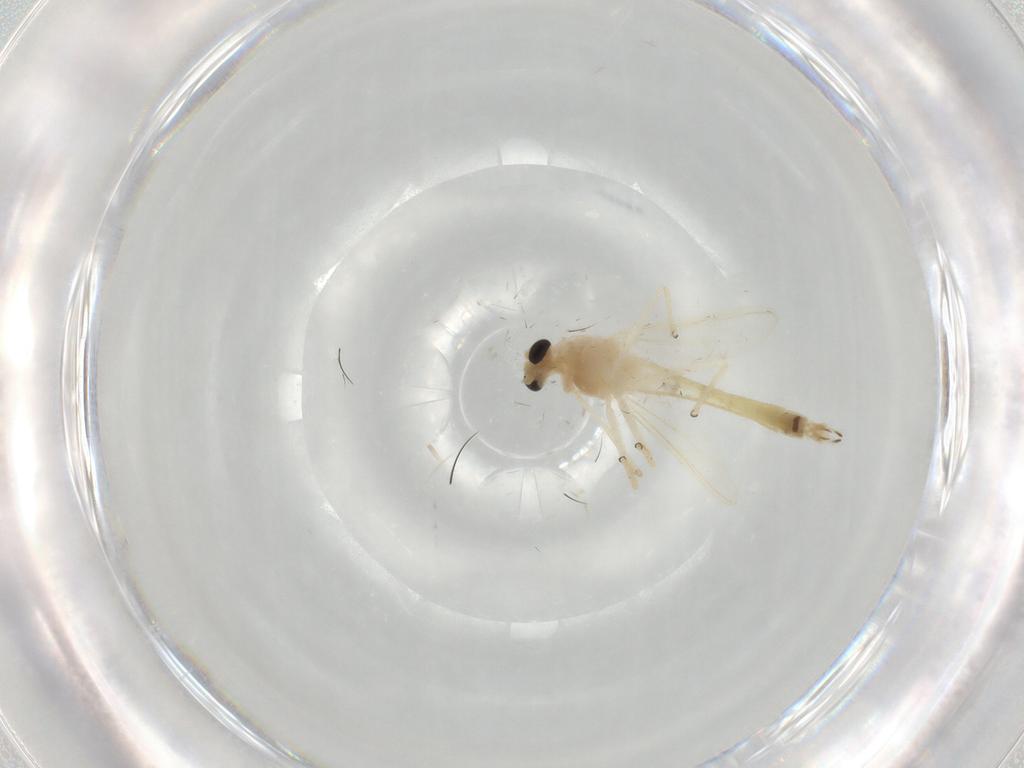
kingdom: Animalia
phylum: Arthropoda
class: Insecta
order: Diptera
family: Chironomidae
